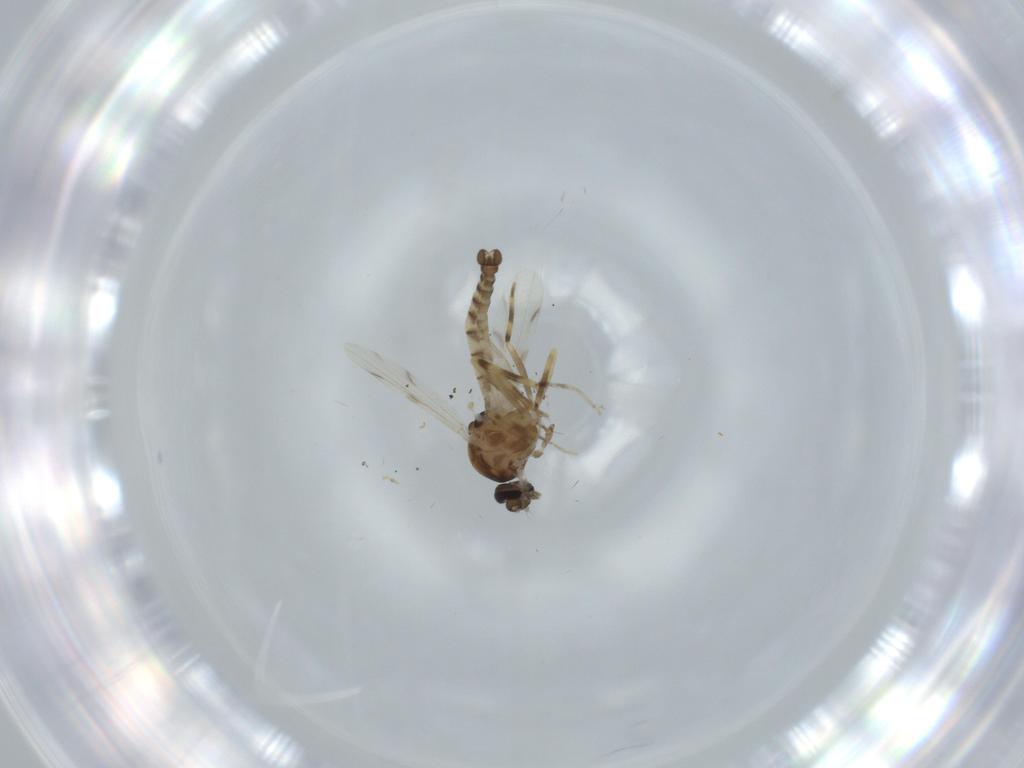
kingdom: Animalia
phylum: Arthropoda
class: Insecta
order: Diptera
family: Ceratopogonidae
